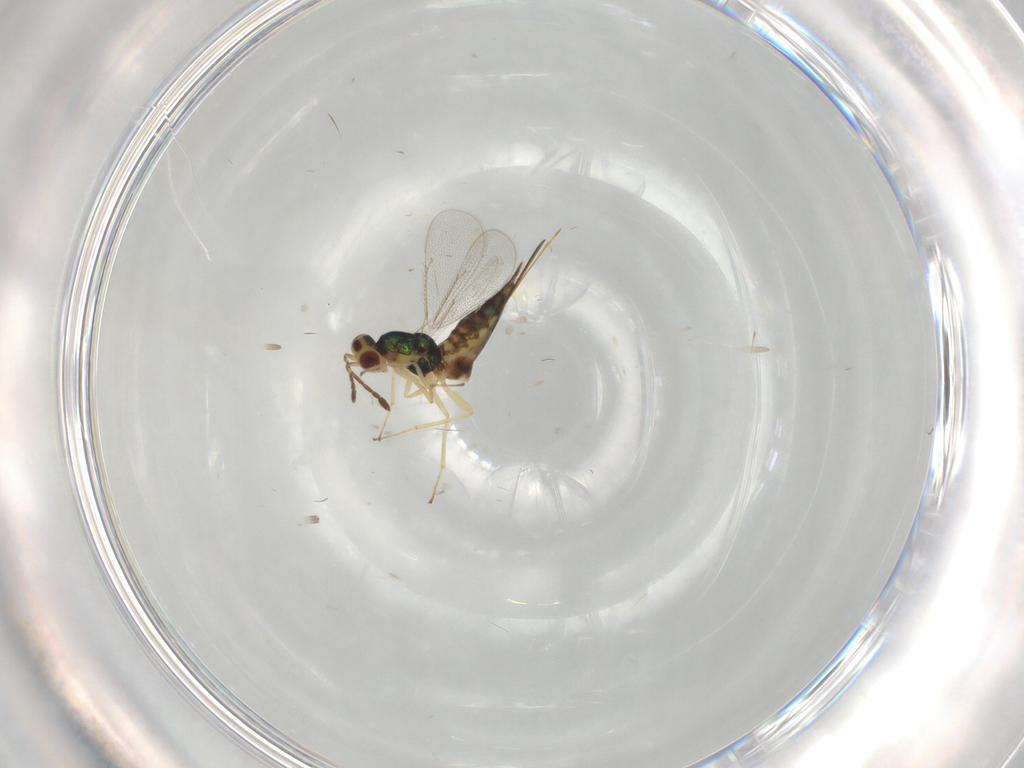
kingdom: Animalia
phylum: Arthropoda
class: Insecta
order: Hymenoptera
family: Eulophidae
